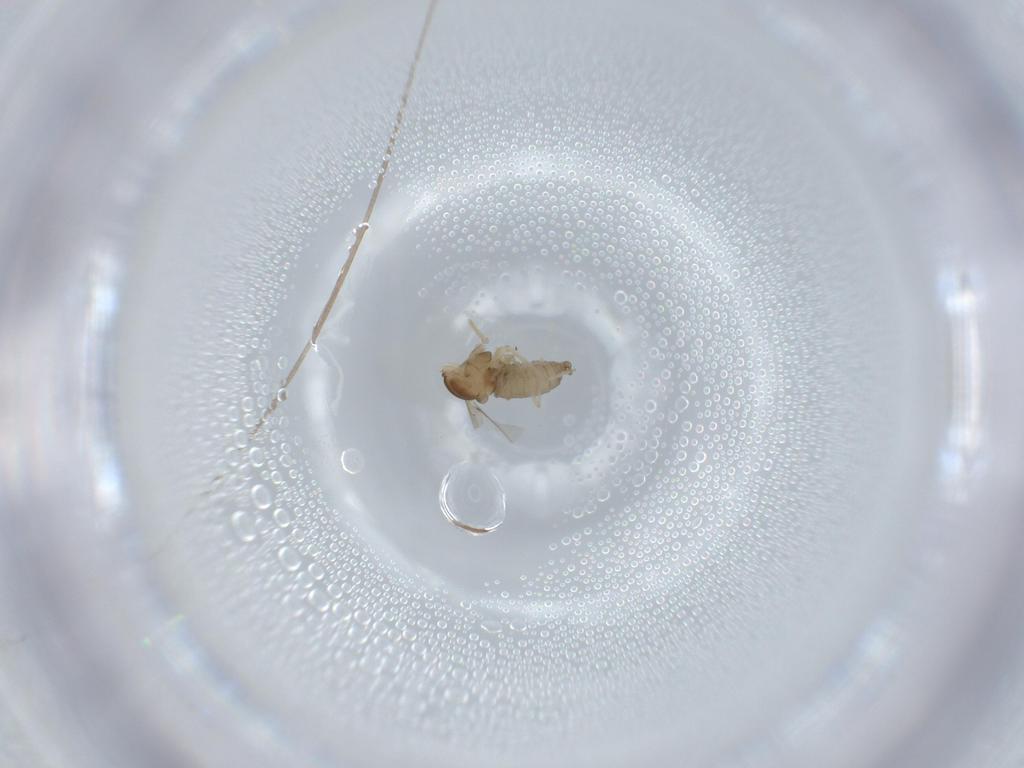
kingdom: Animalia
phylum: Arthropoda
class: Insecta
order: Diptera
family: Cecidomyiidae
